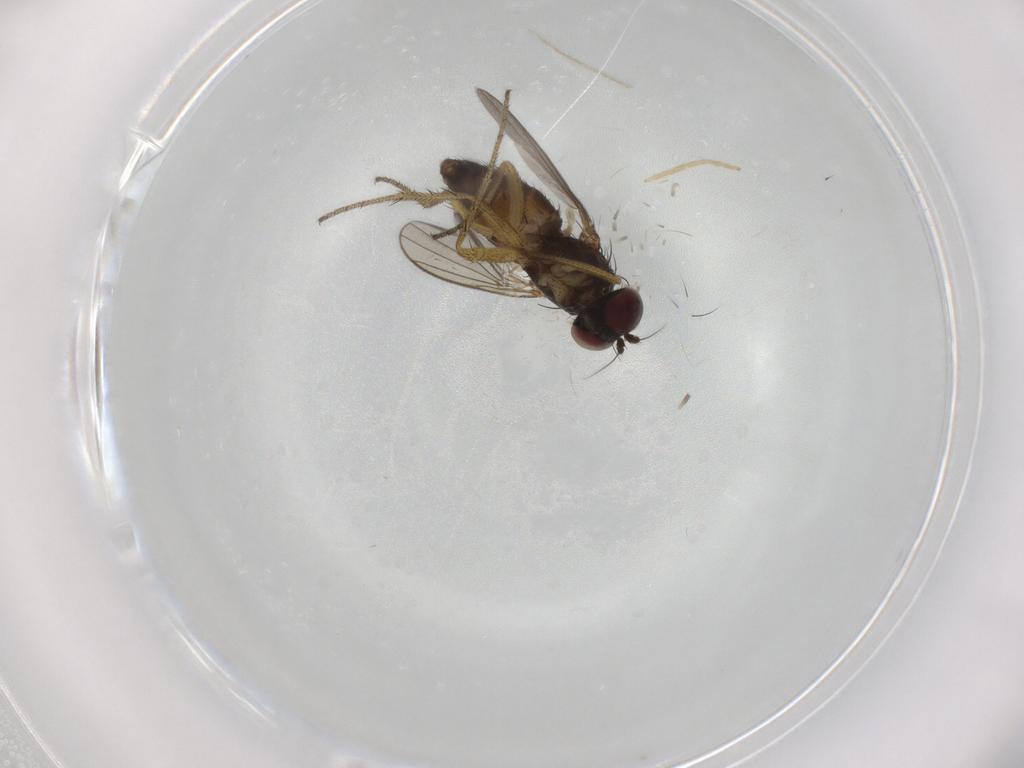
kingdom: Animalia
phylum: Arthropoda
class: Insecta
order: Diptera
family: Dolichopodidae
